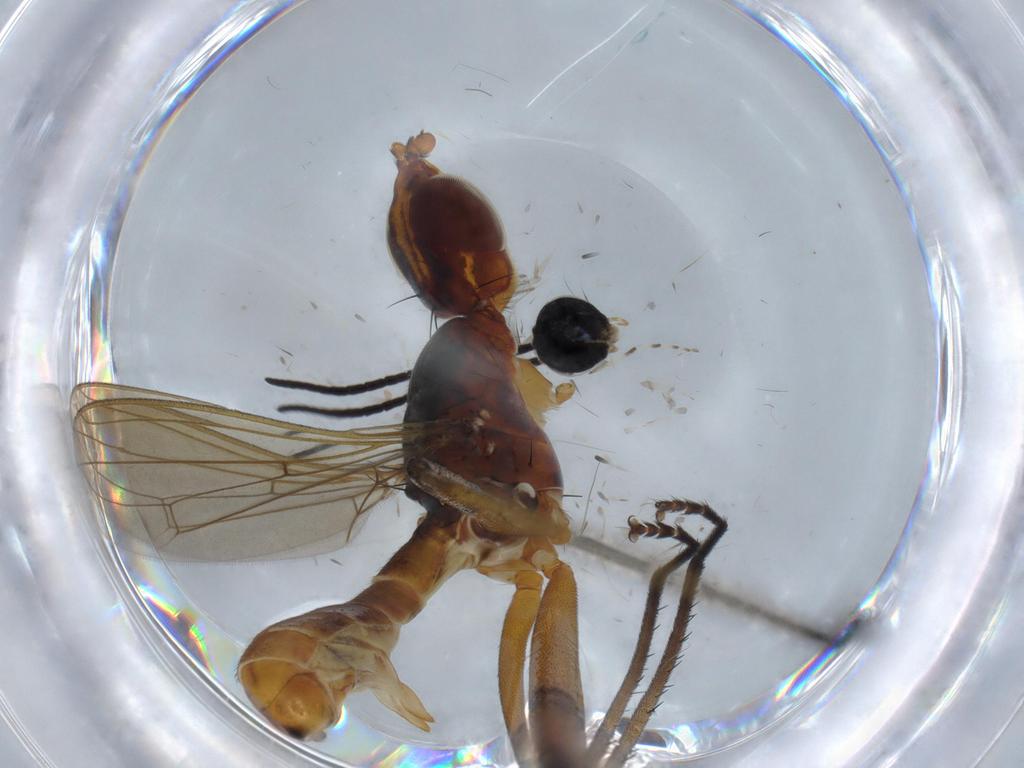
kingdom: Animalia
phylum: Arthropoda
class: Insecta
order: Diptera
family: Neriidae
